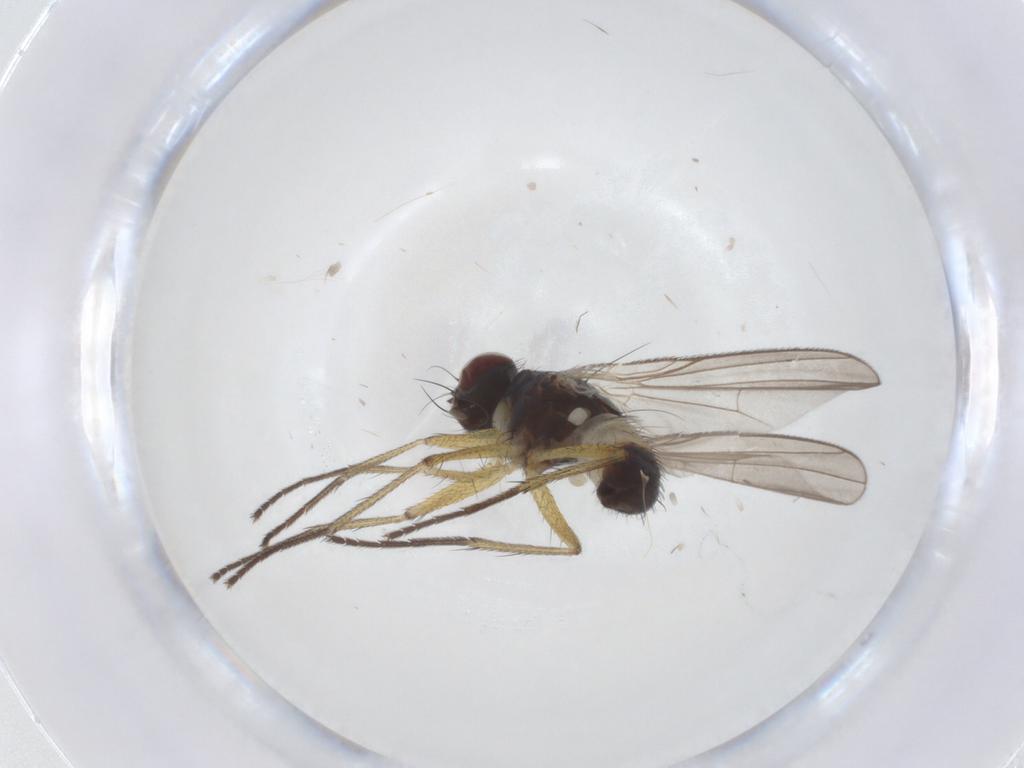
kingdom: Animalia
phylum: Arthropoda
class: Insecta
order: Diptera
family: Muscidae
